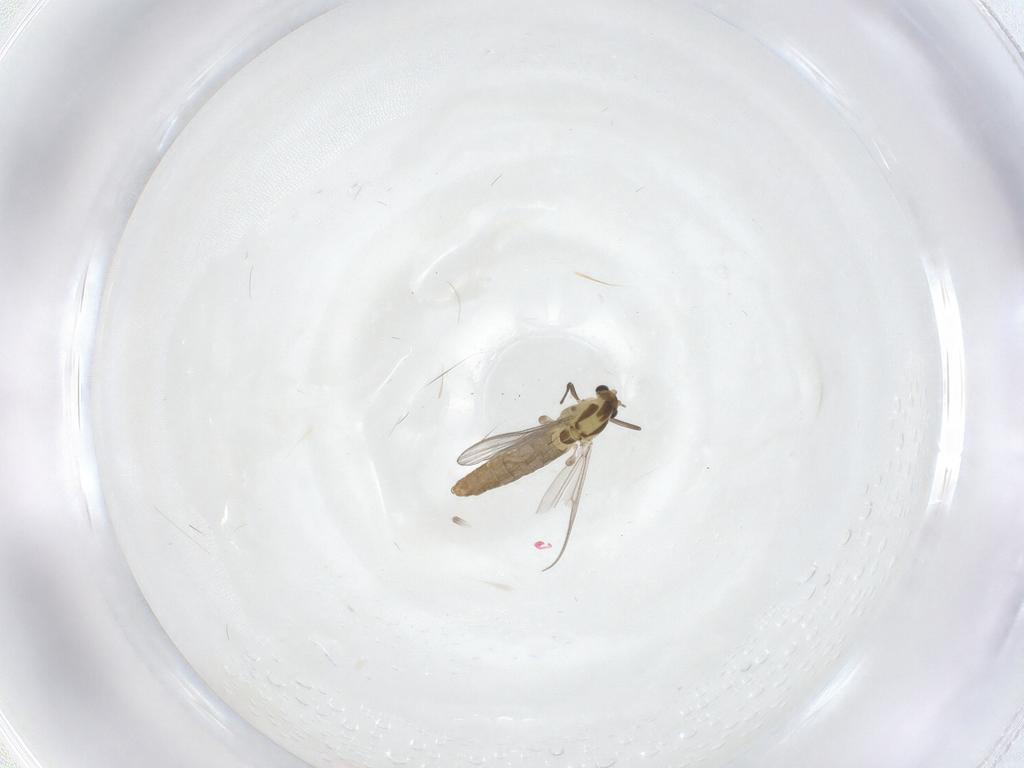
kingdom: Animalia
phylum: Arthropoda
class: Insecta
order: Diptera
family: Chironomidae
